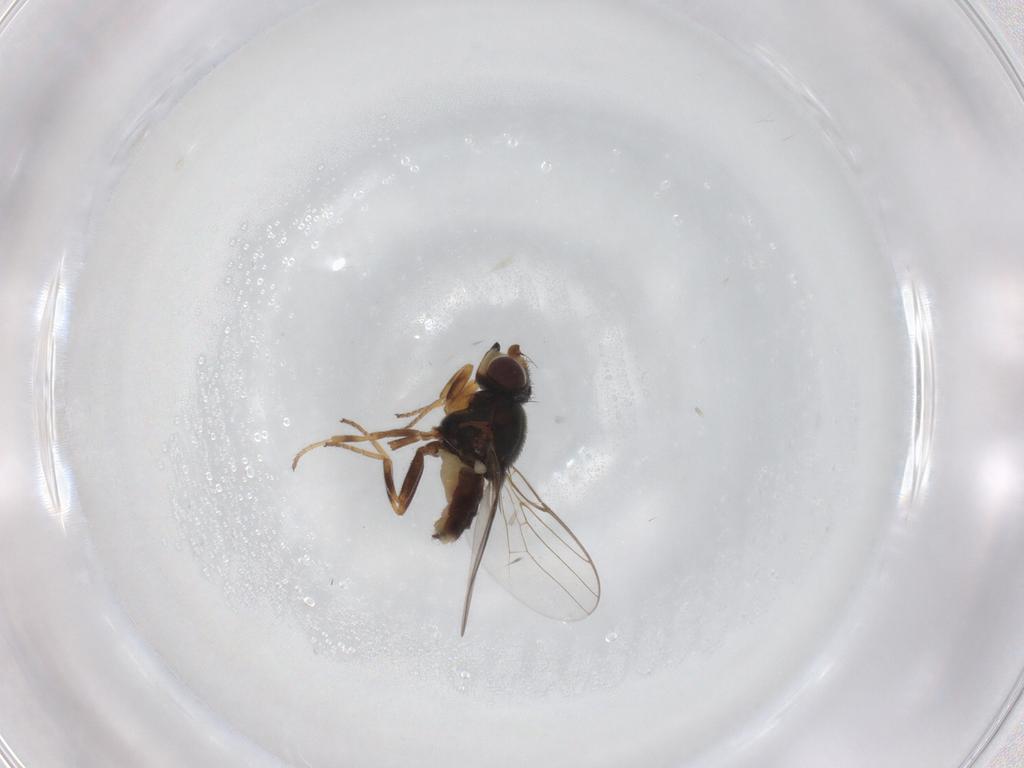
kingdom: Animalia
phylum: Arthropoda
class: Insecta
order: Diptera
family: Chloropidae
